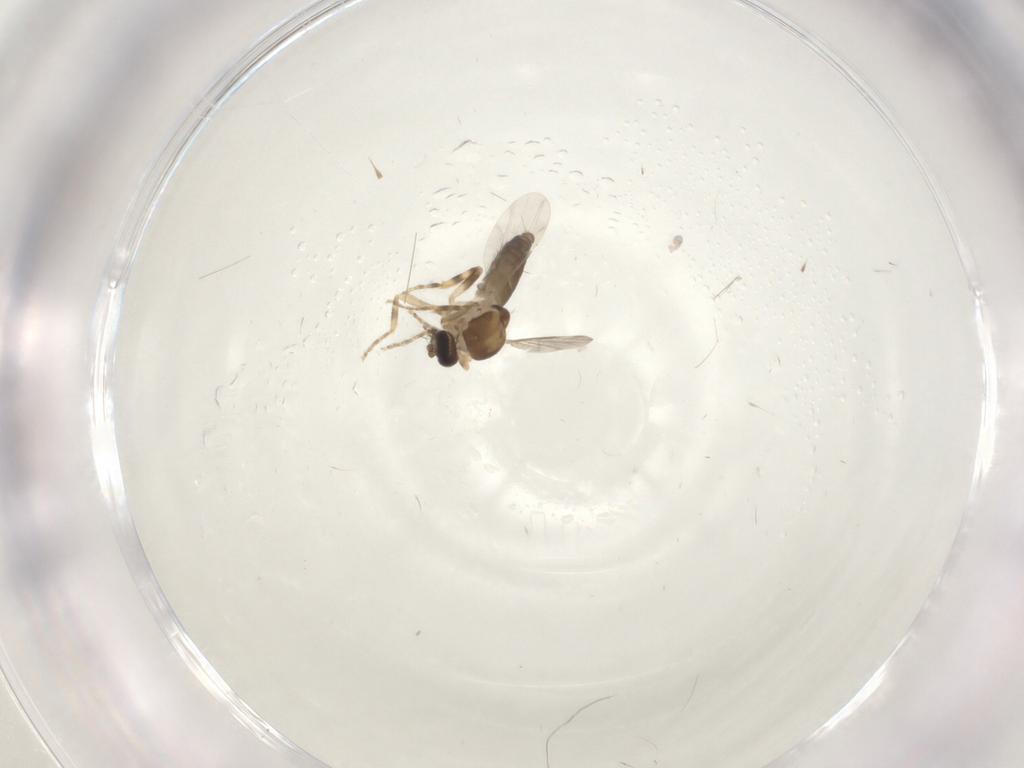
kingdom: Animalia
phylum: Arthropoda
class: Insecta
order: Diptera
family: Ceratopogonidae
